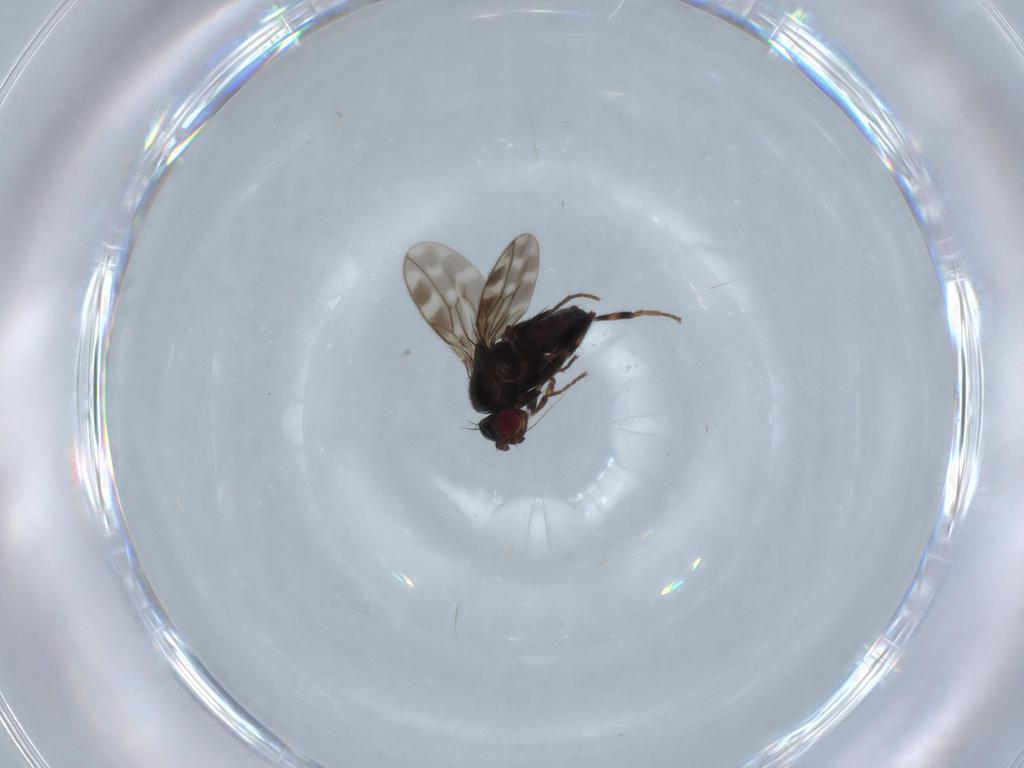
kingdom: Animalia
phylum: Arthropoda
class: Insecta
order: Diptera
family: Sphaeroceridae
